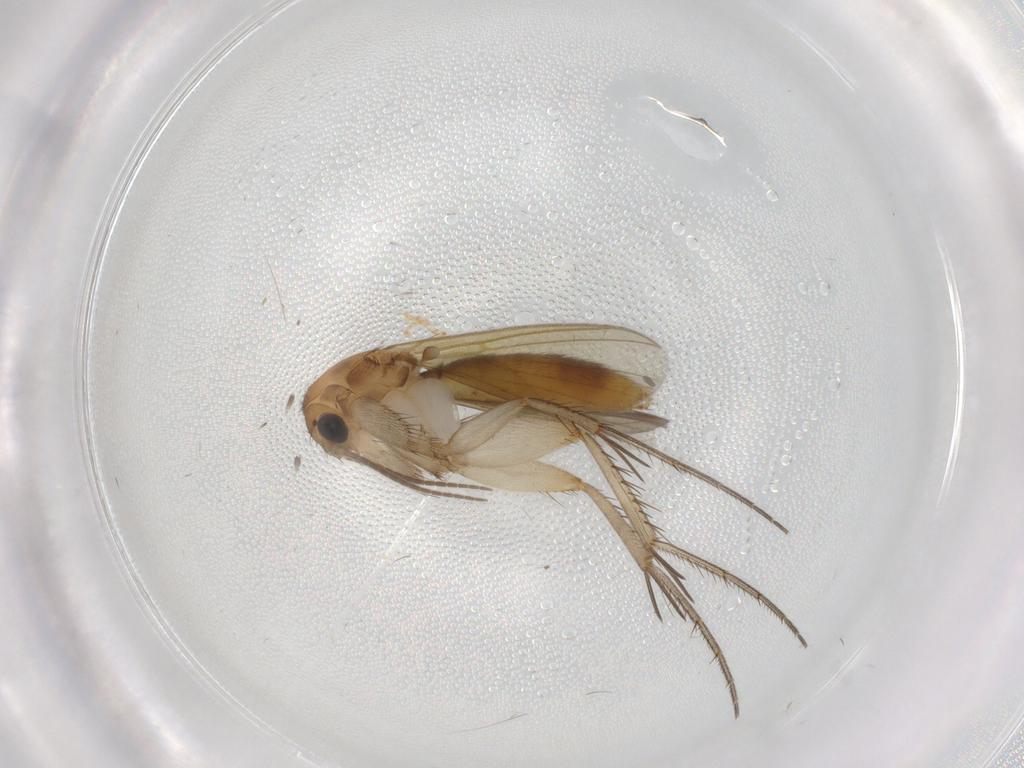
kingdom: Animalia
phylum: Arthropoda
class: Insecta
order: Diptera
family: Mycetophilidae
